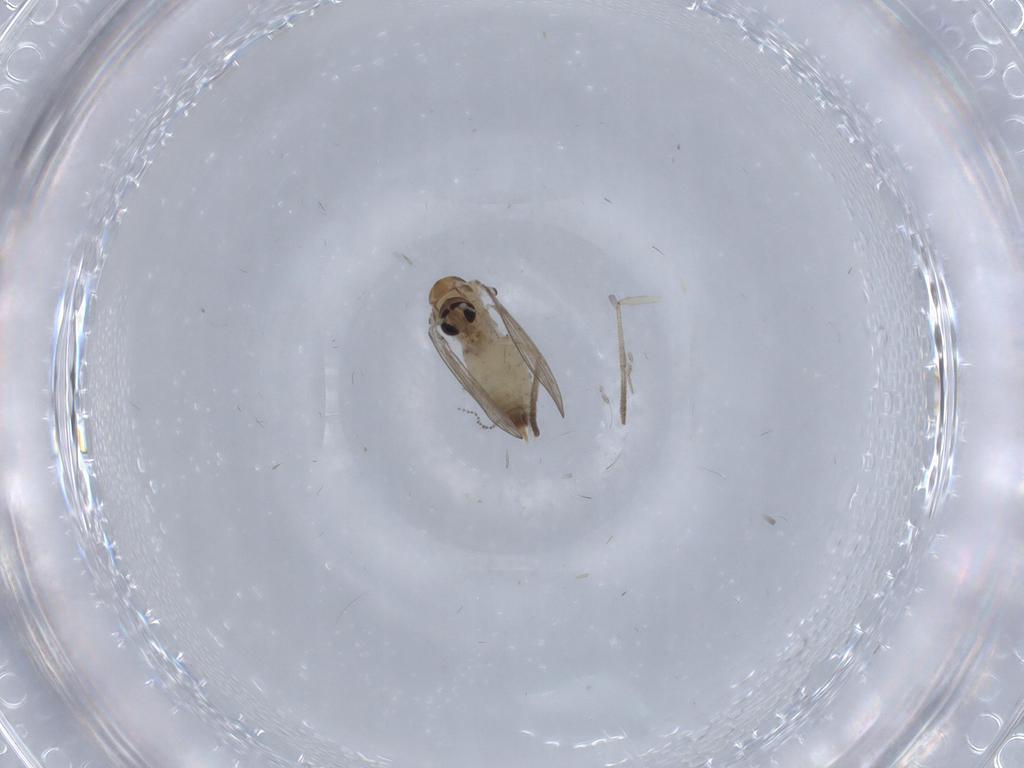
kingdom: Animalia
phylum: Arthropoda
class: Insecta
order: Diptera
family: Psychodidae
